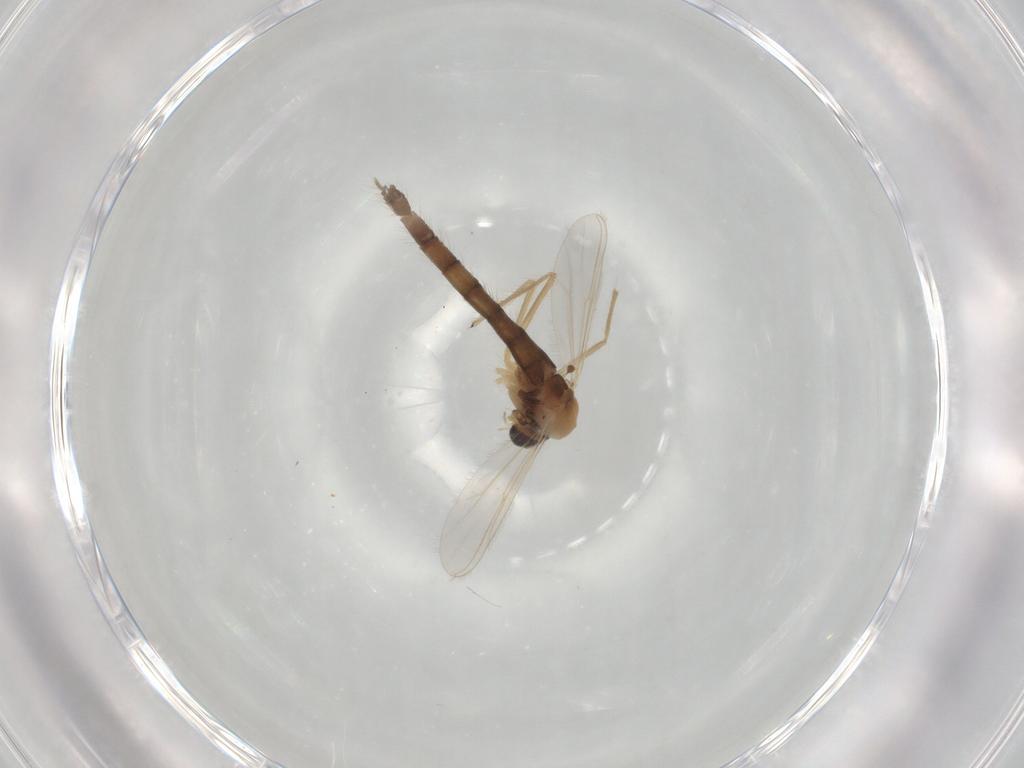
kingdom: Animalia
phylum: Arthropoda
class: Insecta
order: Diptera
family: Chironomidae
